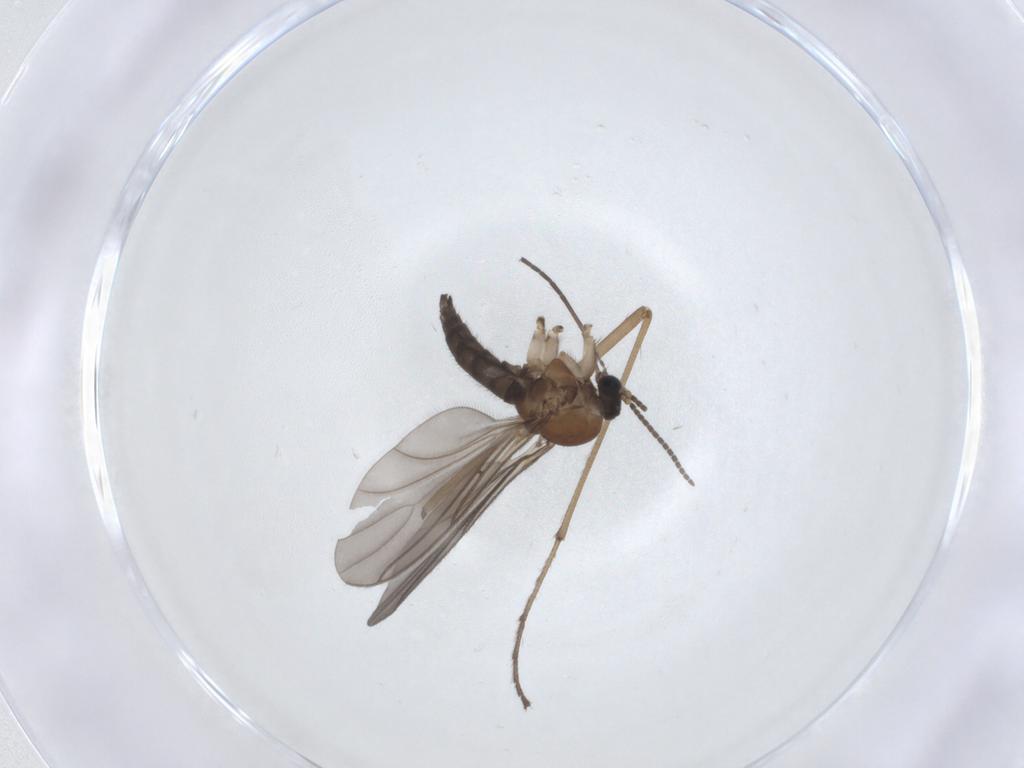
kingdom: Animalia
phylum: Arthropoda
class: Insecta
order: Diptera
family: Limoniidae
